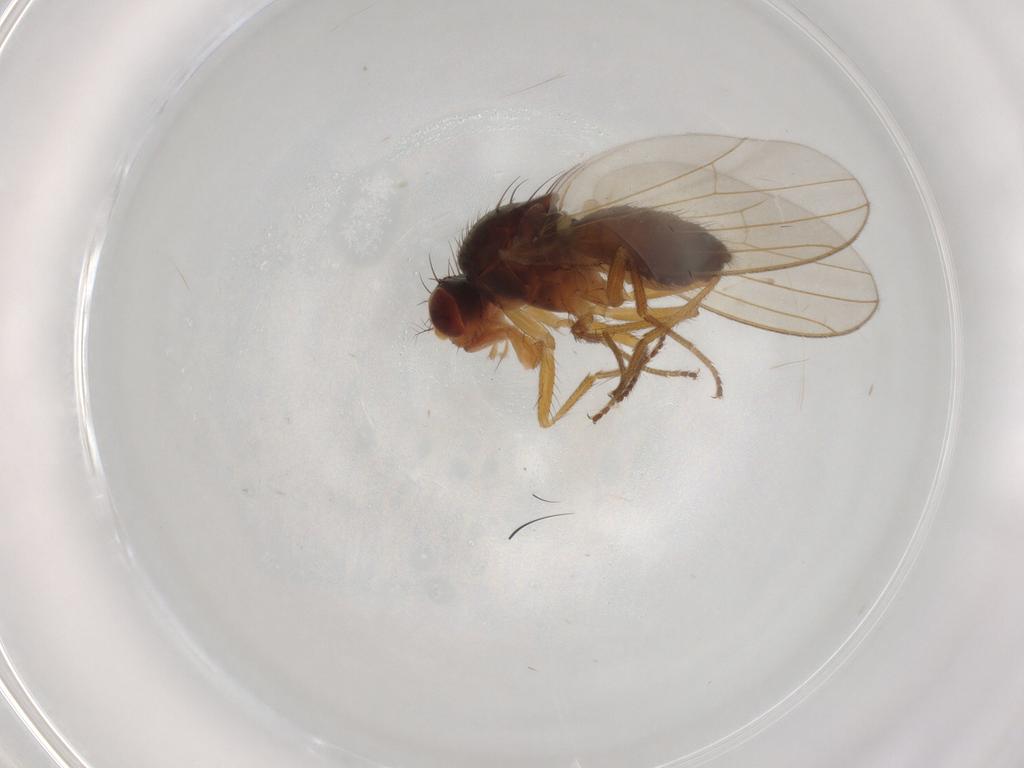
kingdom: Animalia
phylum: Arthropoda
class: Insecta
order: Diptera
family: Drosophilidae
